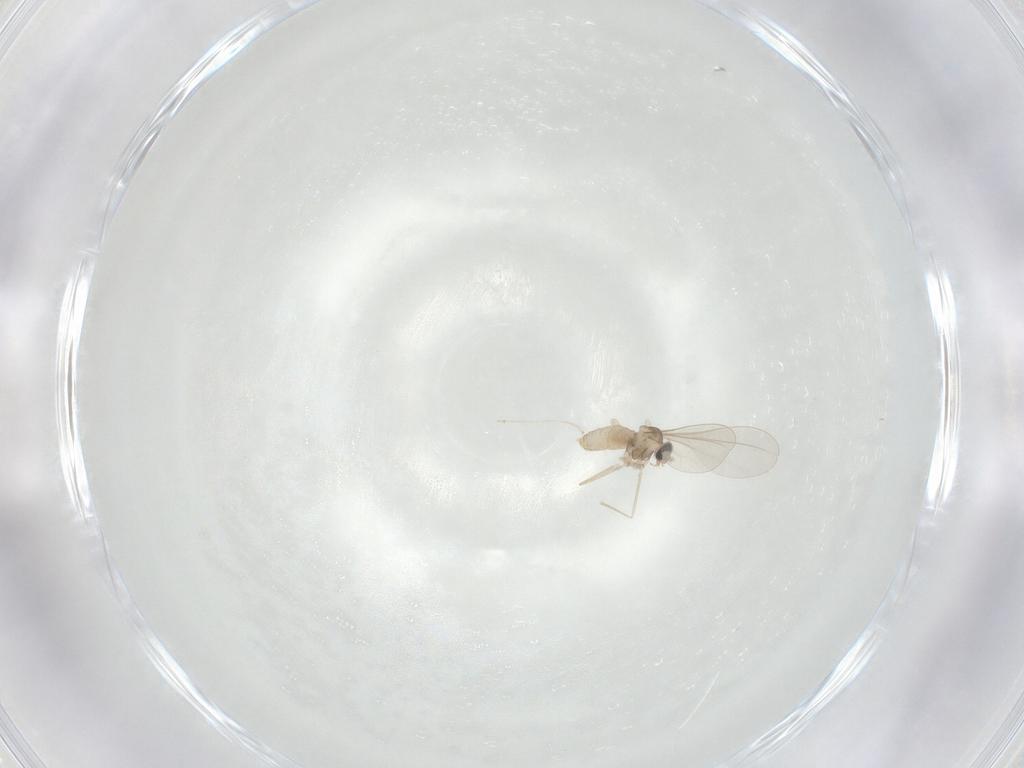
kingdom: Animalia
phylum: Arthropoda
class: Insecta
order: Diptera
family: Cecidomyiidae
